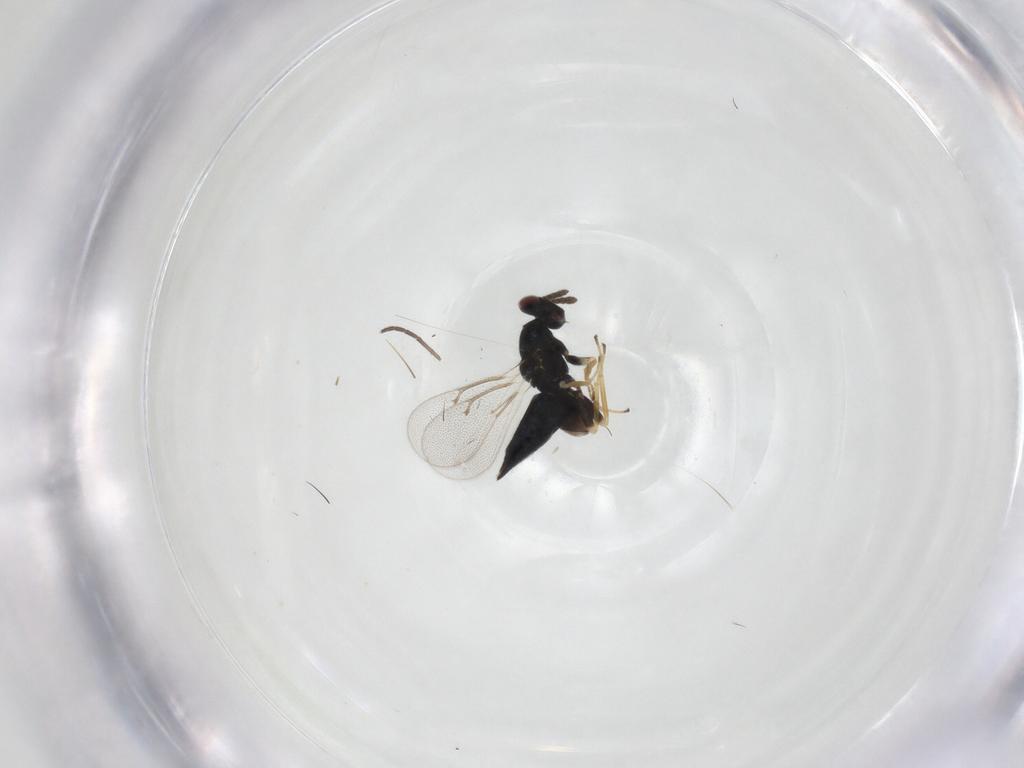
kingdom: Animalia
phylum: Arthropoda
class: Insecta
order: Hymenoptera
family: Eulophidae
